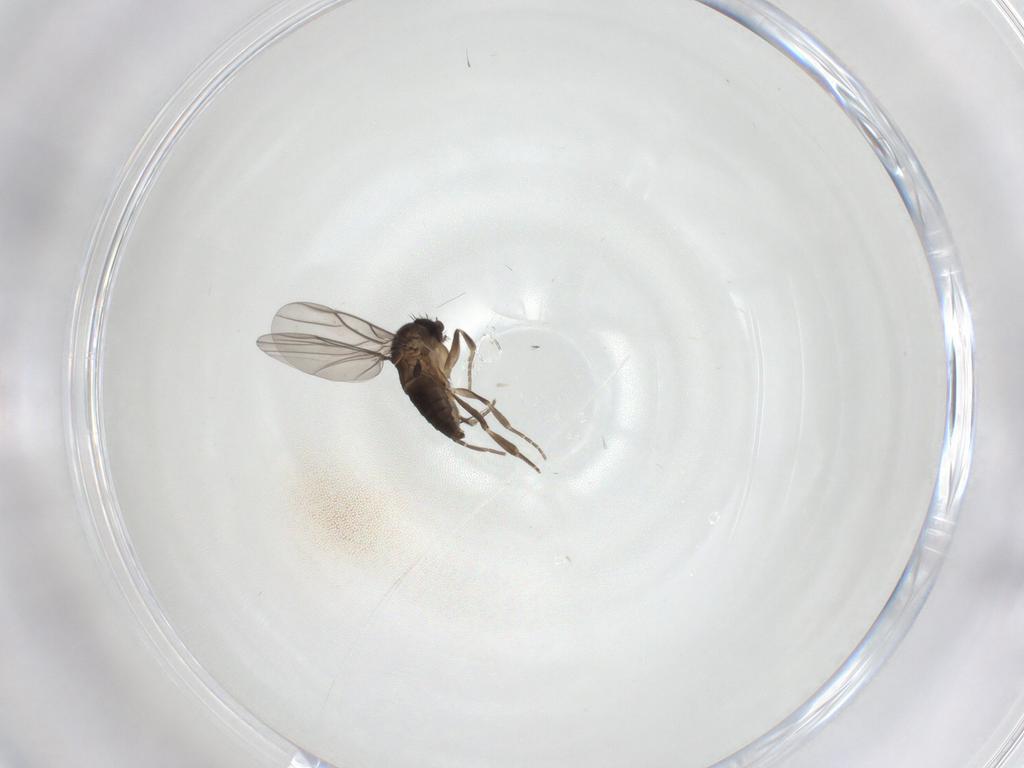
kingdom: Animalia
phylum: Arthropoda
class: Insecta
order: Diptera
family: Phoridae
